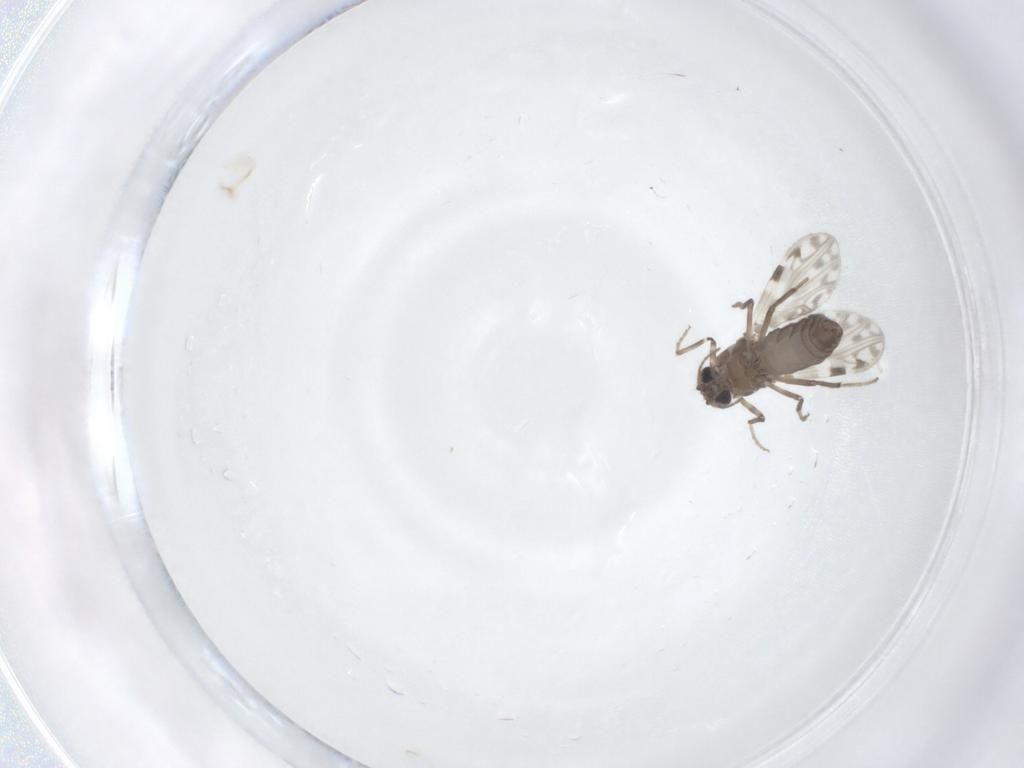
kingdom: Animalia
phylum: Arthropoda
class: Insecta
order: Diptera
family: Ceratopogonidae
